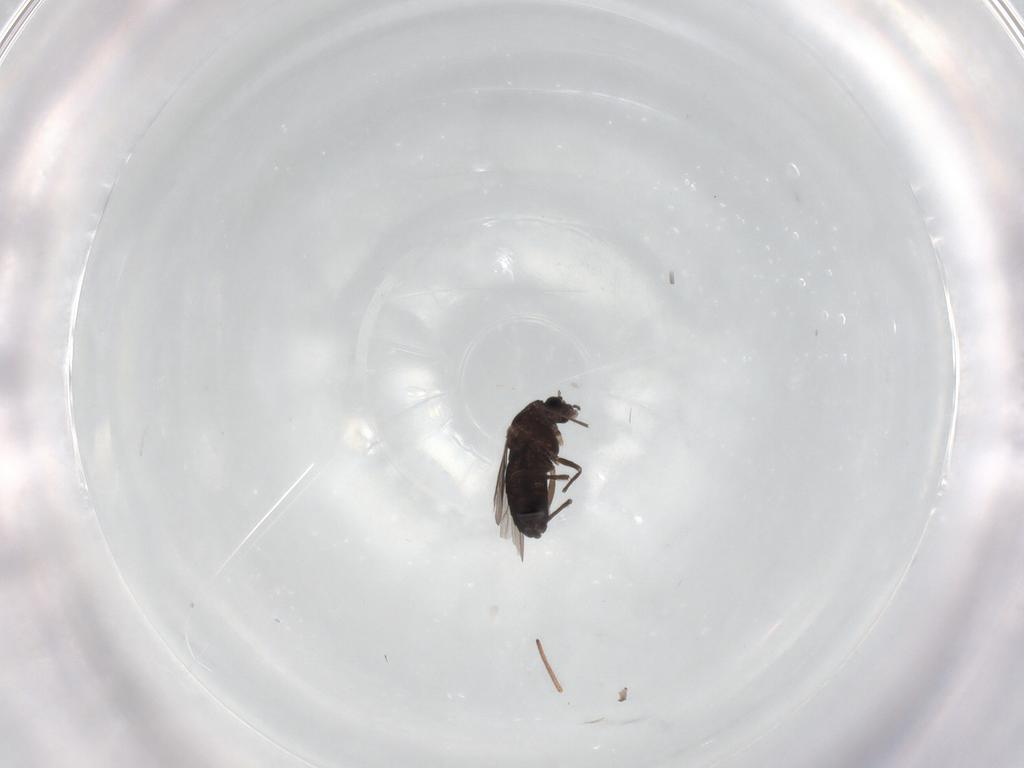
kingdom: Animalia
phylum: Arthropoda
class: Insecta
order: Diptera
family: Chironomidae
